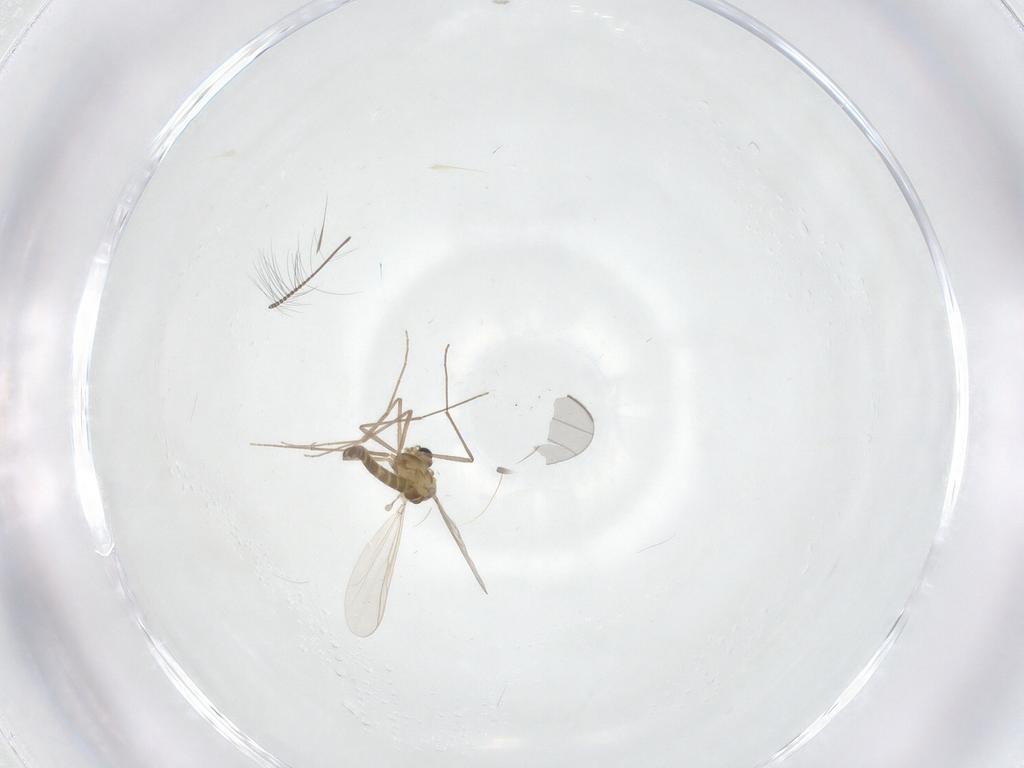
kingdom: Animalia
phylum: Arthropoda
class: Insecta
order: Diptera
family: Chironomidae
